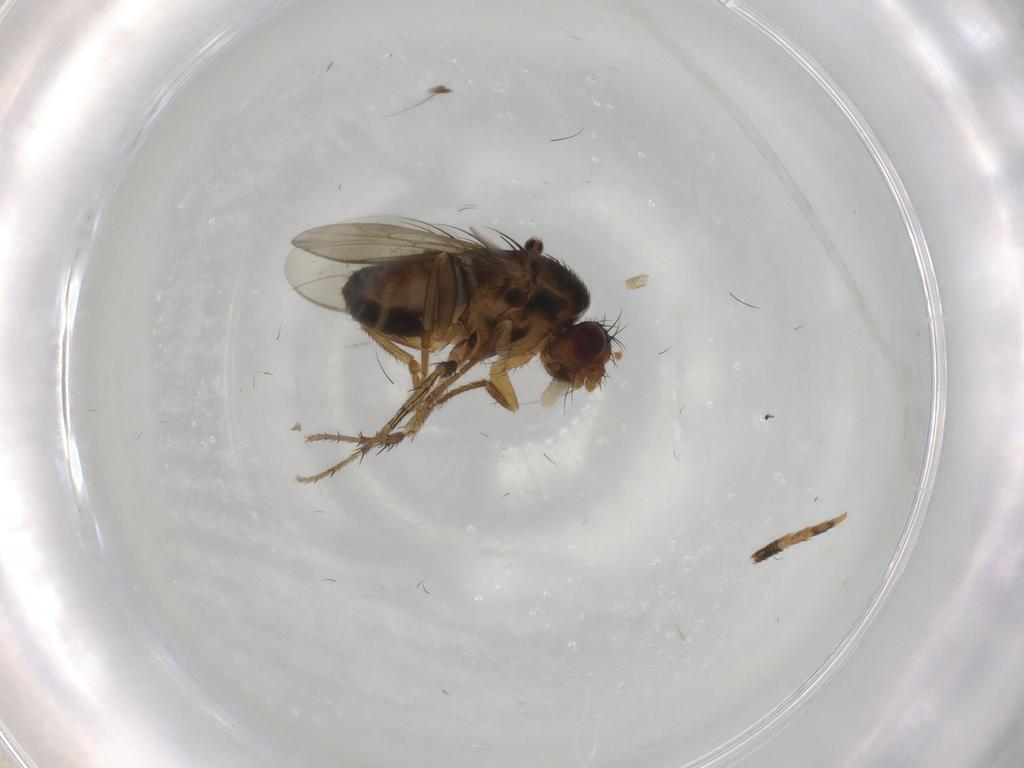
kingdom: Animalia
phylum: Arthropoda
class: Insecta
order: Diptera
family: Cecidomyiidae
